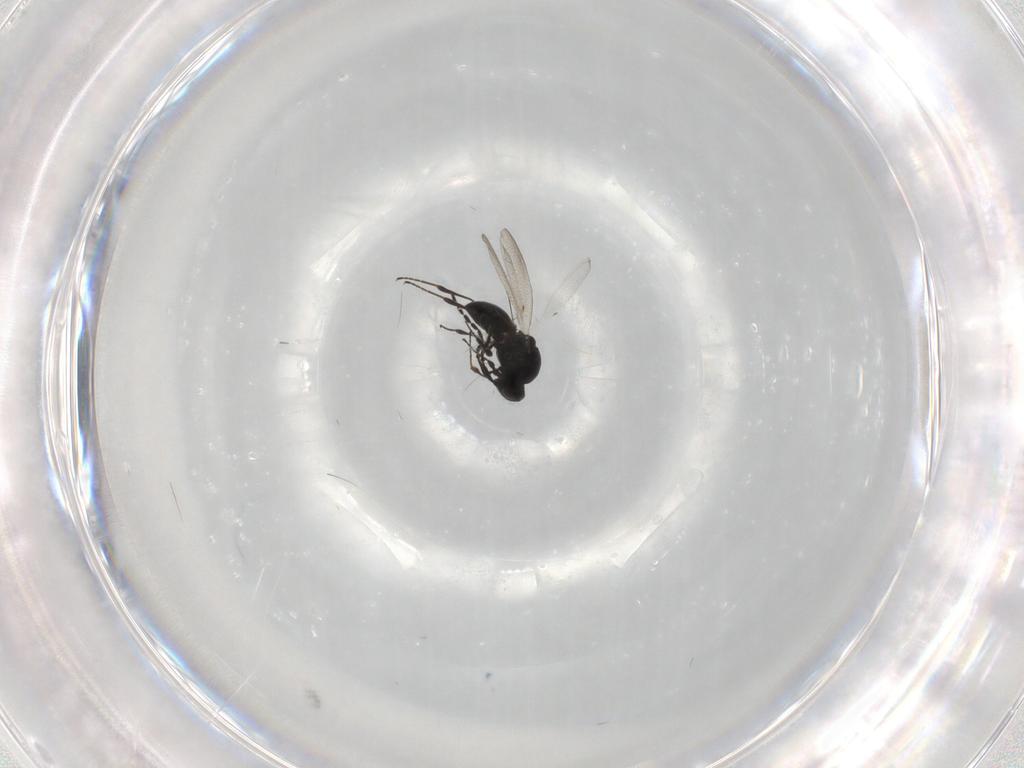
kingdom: Animalia
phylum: Arthropoda
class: Insecta
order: Hymenoptera
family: Platygastridae
